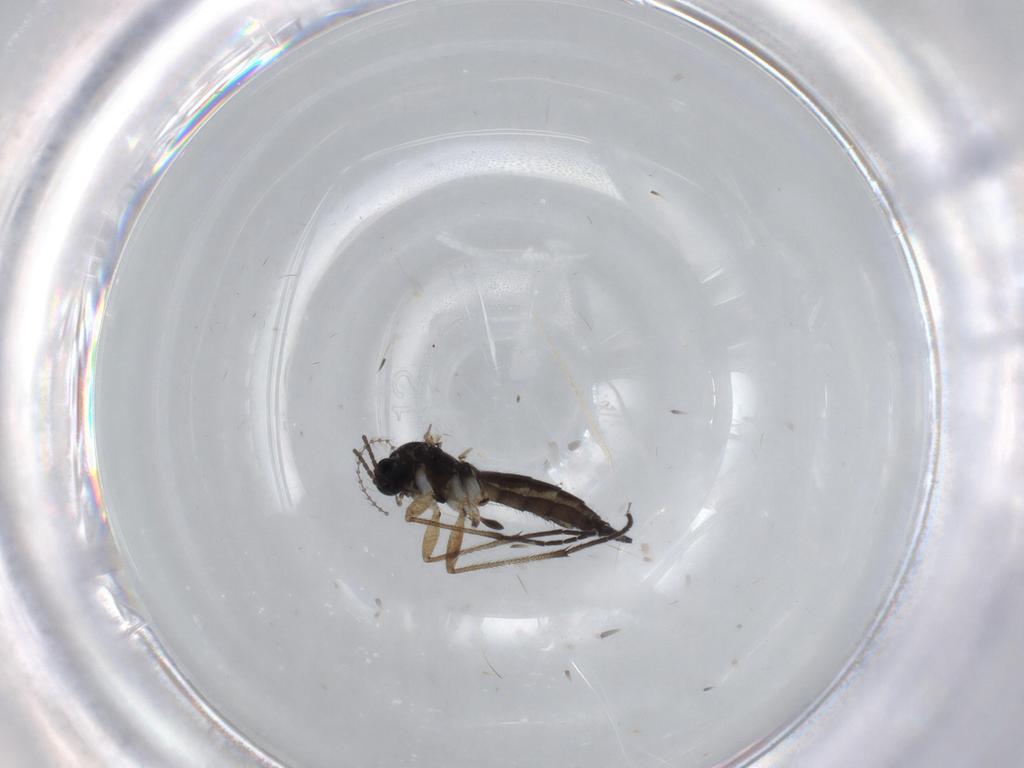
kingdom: Animalia
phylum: Arthropoda
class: Insecta
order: Diptera
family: Sciaridae
